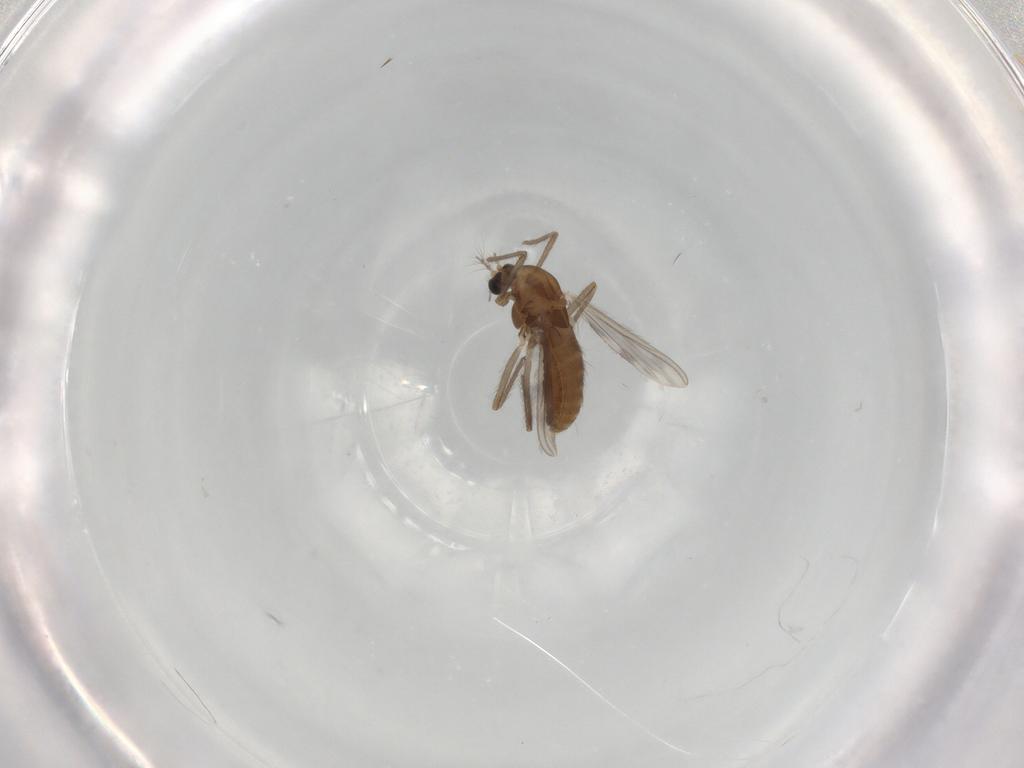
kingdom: Animalia
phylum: Arthropoda
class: Insecta
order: Diptera
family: Chironomidae
